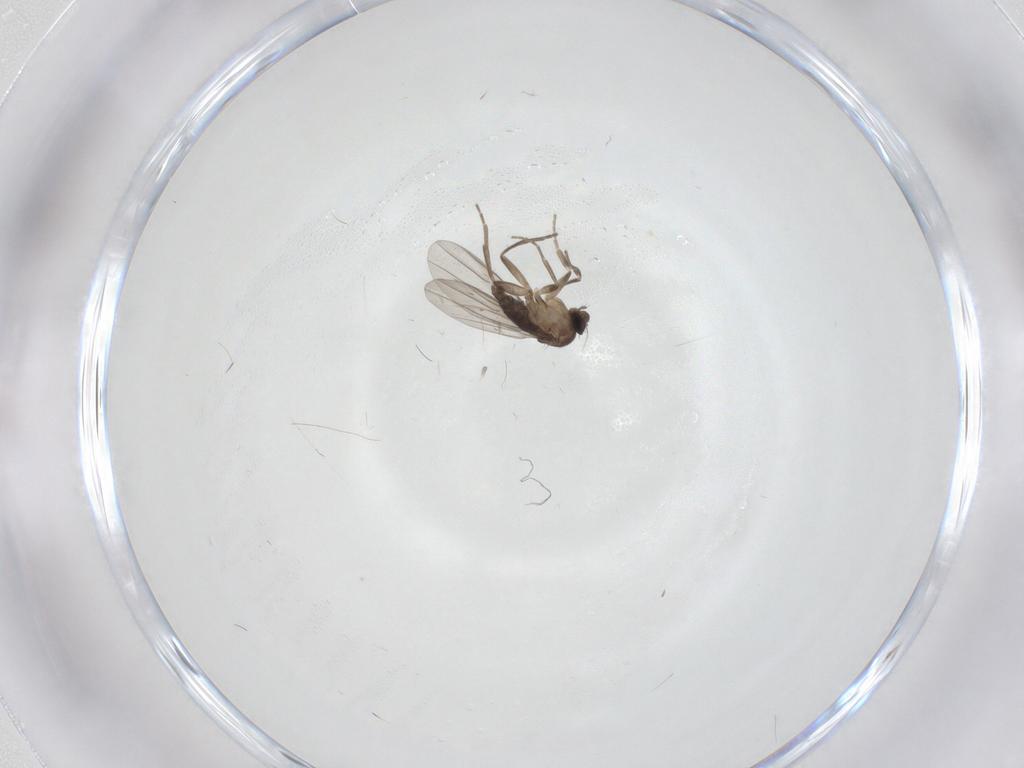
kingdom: Animalia
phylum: Arthropoda
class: Insecta
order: Diptera
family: Phoridae
